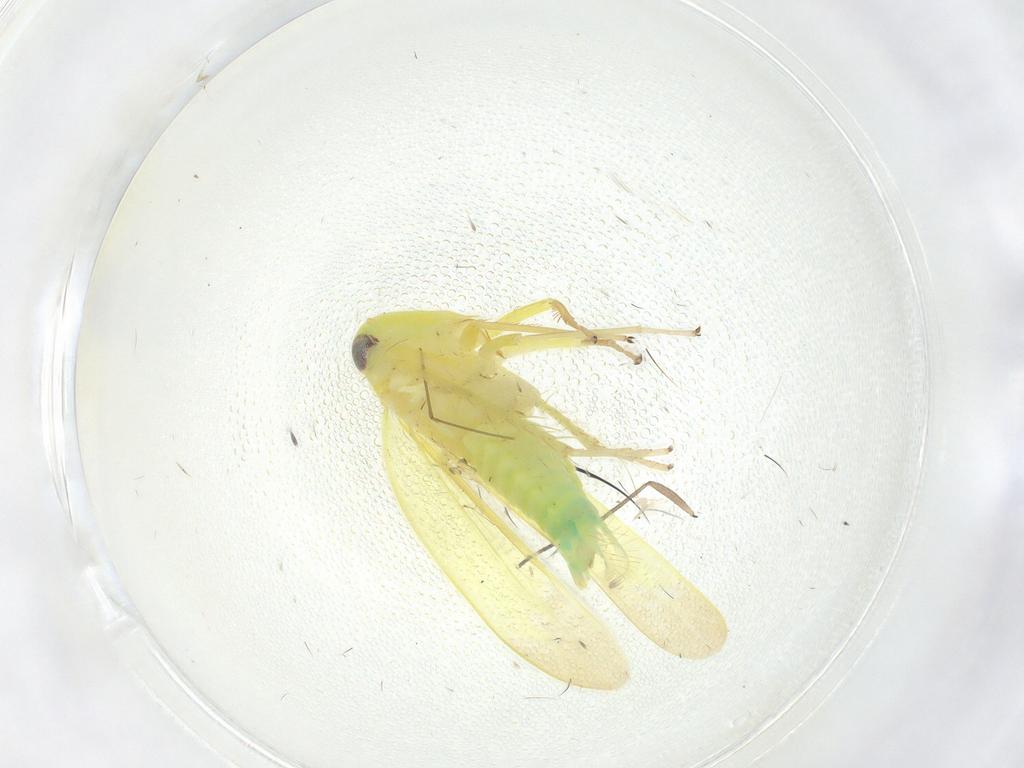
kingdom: Animalia
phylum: Arthropoda
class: Insecta
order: Hemiptera
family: Cicadellidae
